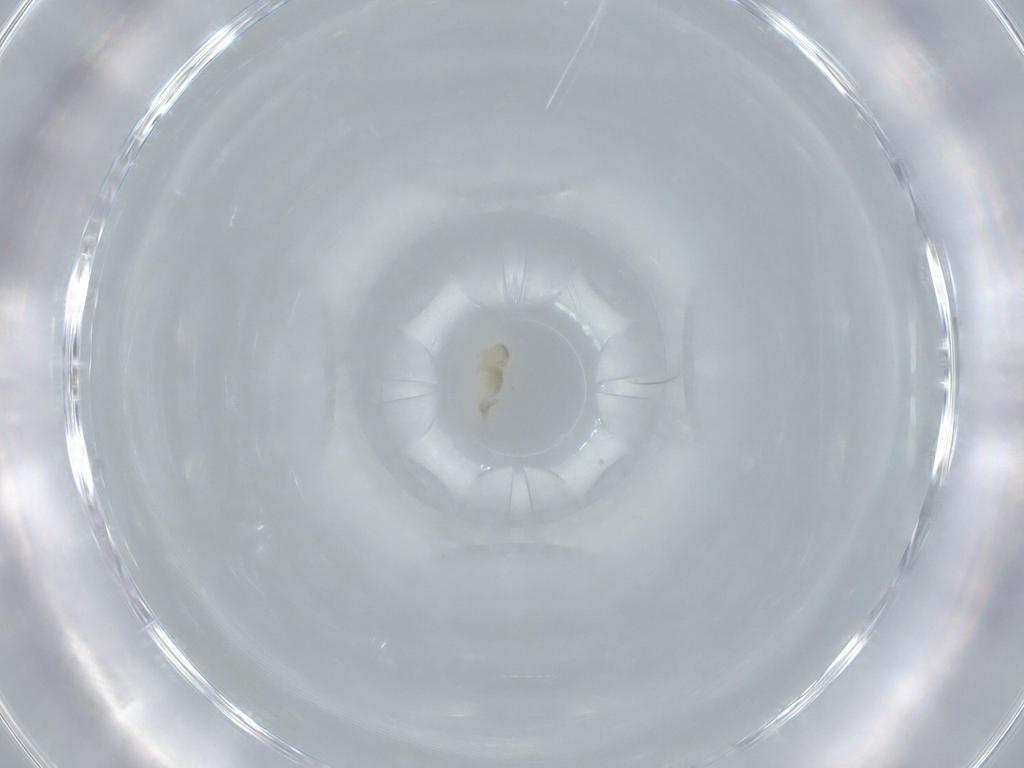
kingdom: Animalia
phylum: Arthropoda
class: Insecta
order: Diptera
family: Cecidomyiidae
